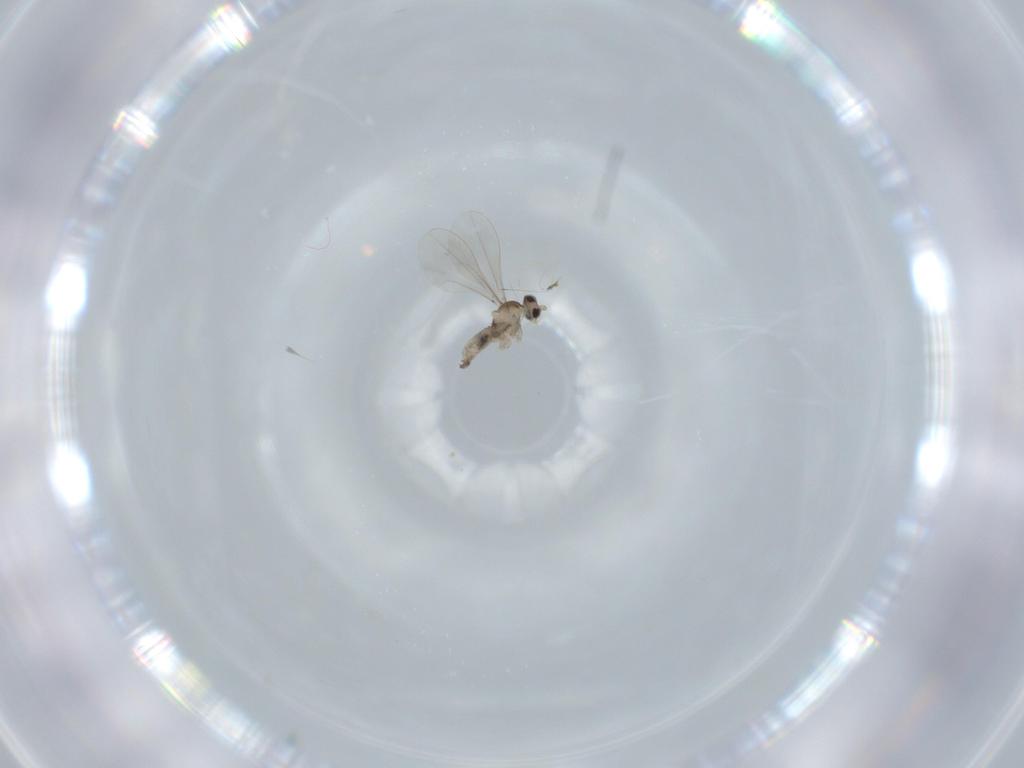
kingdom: Animalia
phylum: Arthropoda
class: Insecta
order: Diptera
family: Cecidomyiidae
